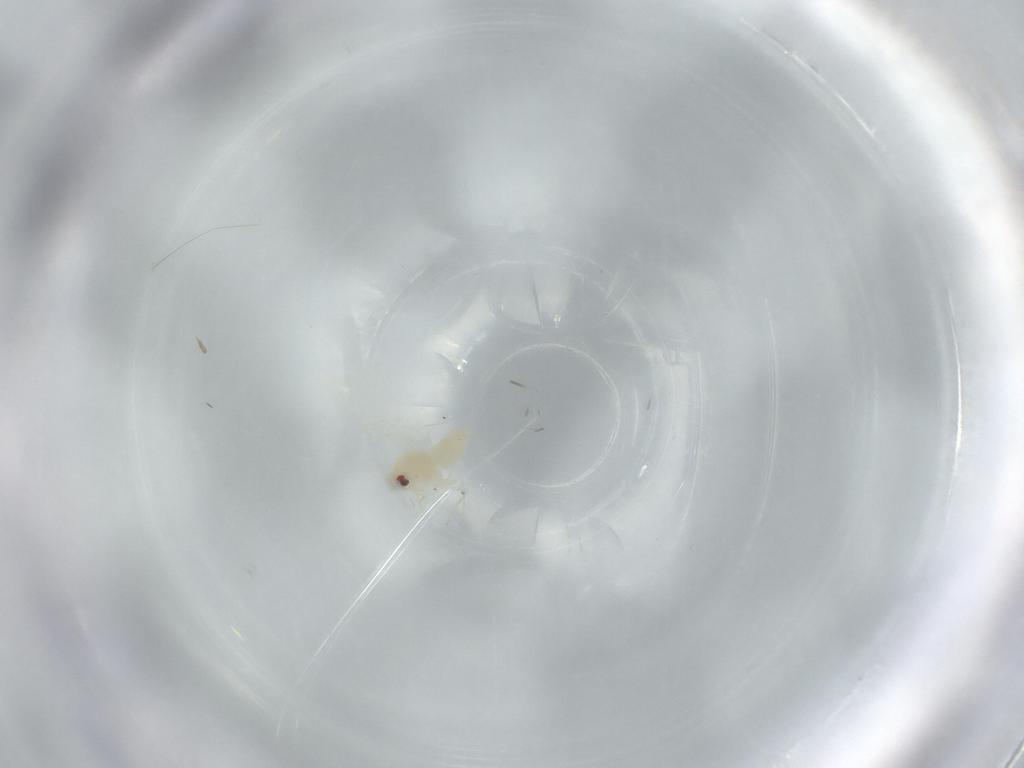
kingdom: Animalia
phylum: Arthropoda
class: Insecta
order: Hemiptera
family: Aleyrodidae
